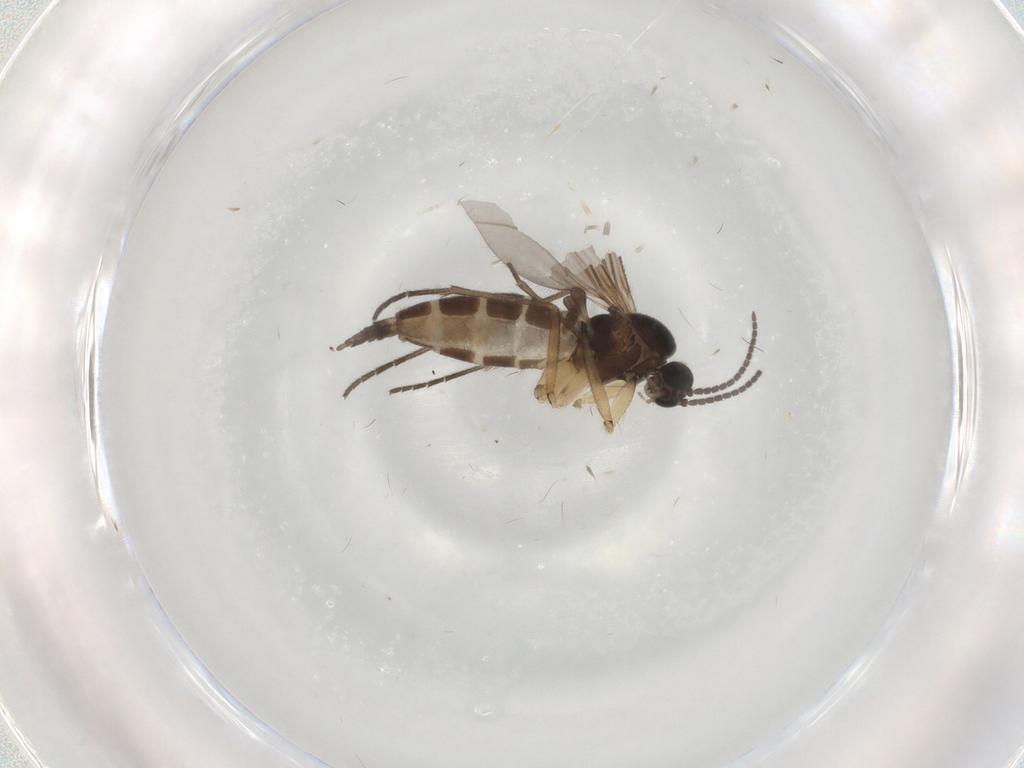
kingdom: Animalia
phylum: Arthropoda
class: Insecta
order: Diptera
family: Sciaridae
